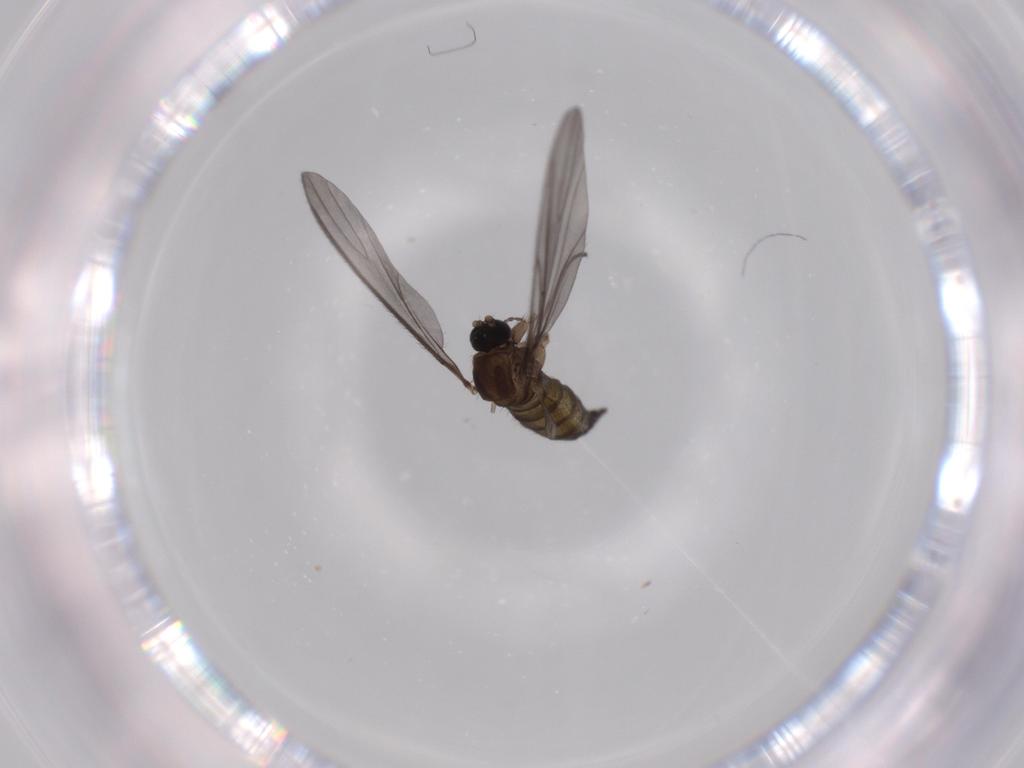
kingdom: Animalia
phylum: Arthropoda
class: Insecta
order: Diptera
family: Sciaridae
